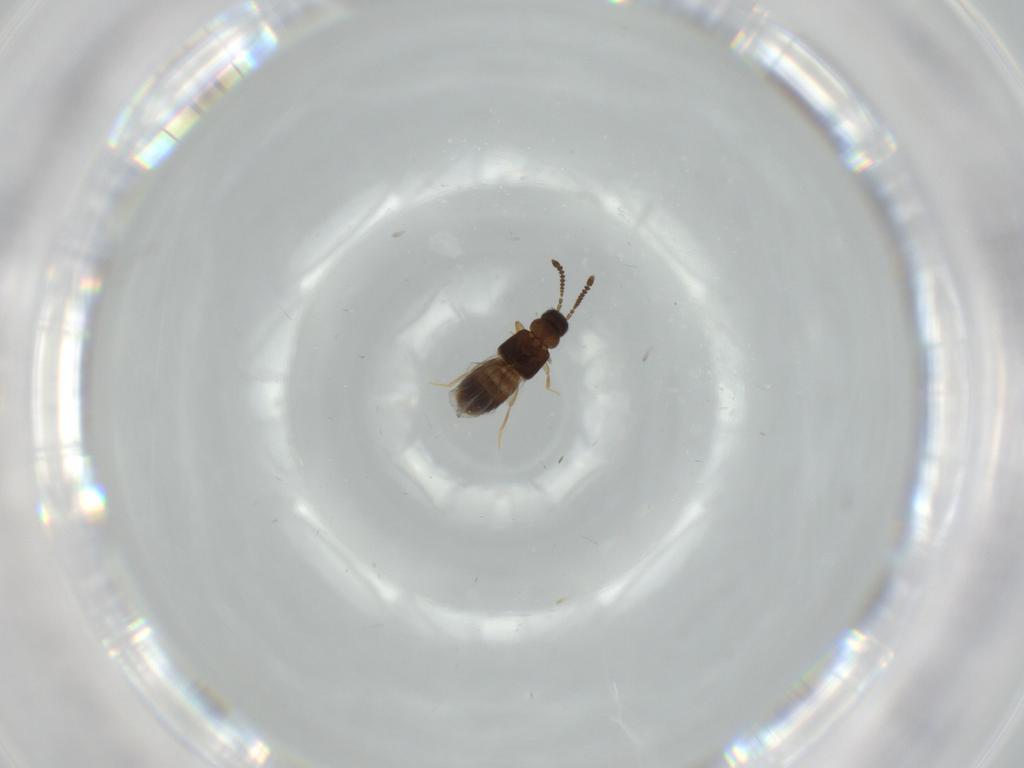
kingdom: Animalia
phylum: Arthropoda
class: Insecta
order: Coleoptera
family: Staphylinidae
